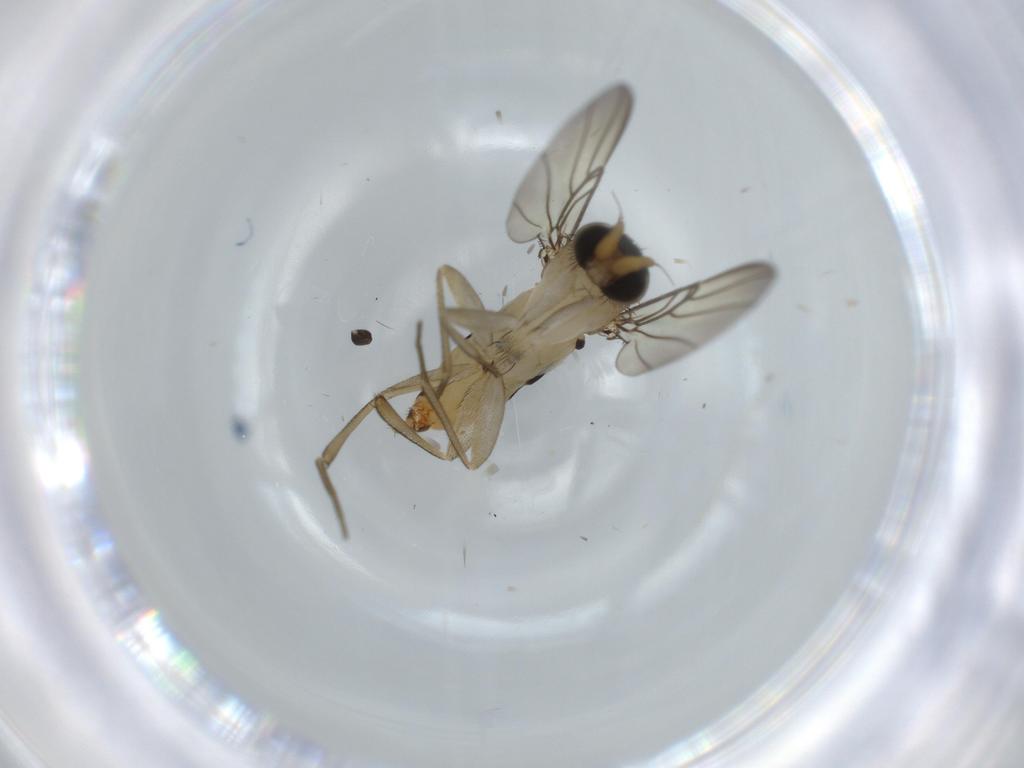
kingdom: Animalia
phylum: Arthropoda
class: Insecta
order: Diptera
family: Phoridae
